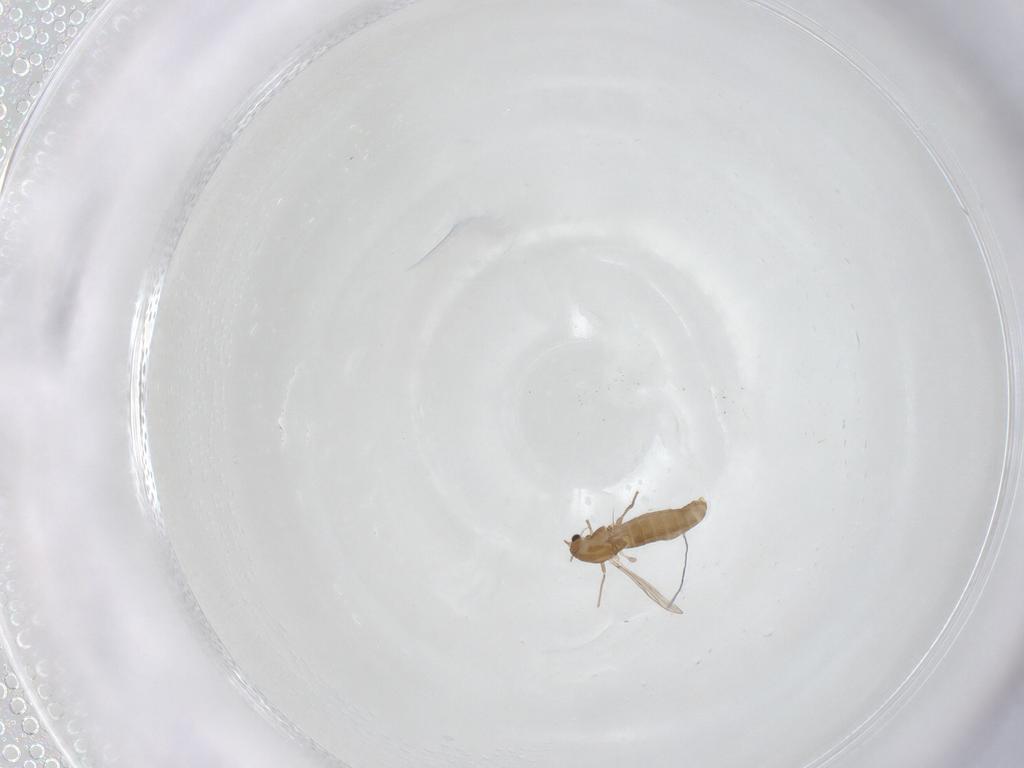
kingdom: Animalia
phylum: Arthropoda
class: Insecta
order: Diptera
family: Chironomidae
